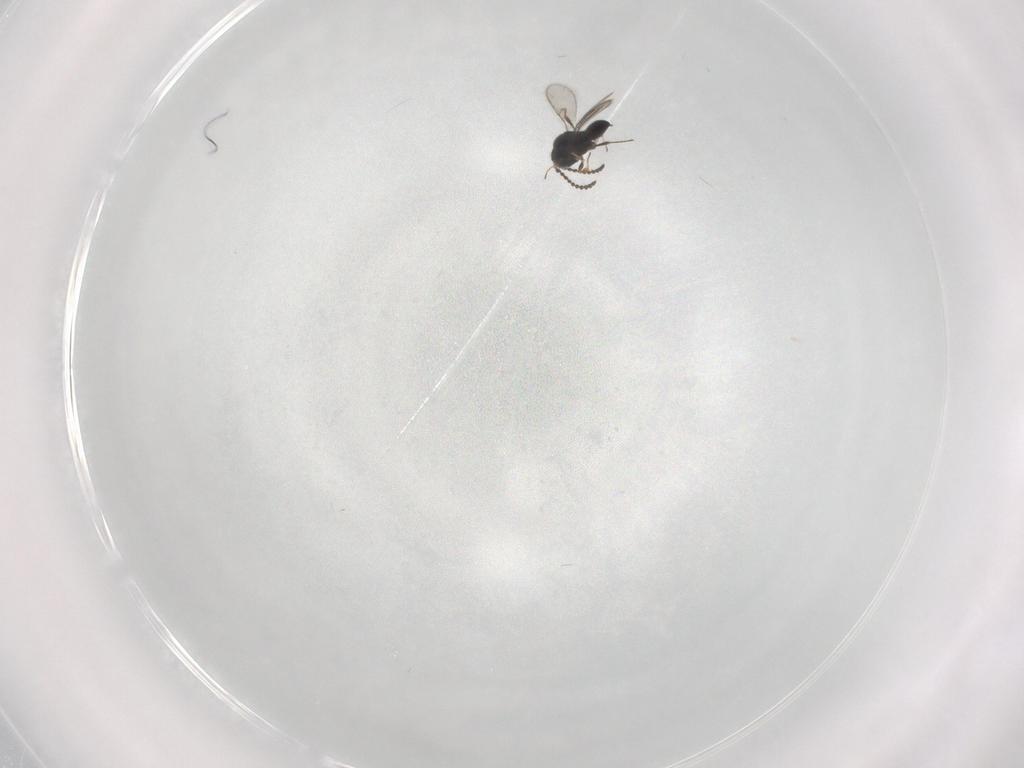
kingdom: Animalia
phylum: Arthropoda
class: Insecta
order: Hymenoptera
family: Scelionidae
